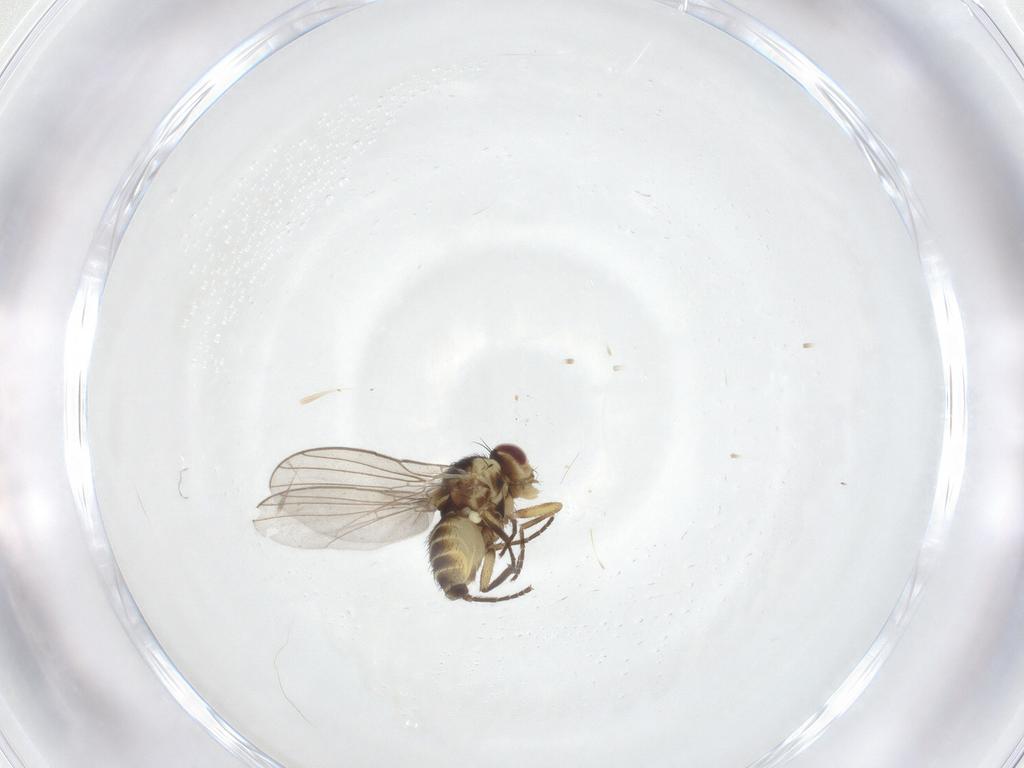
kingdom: Animalia
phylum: Arthropoda
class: Insecta
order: Diptera
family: Agromyzidae
